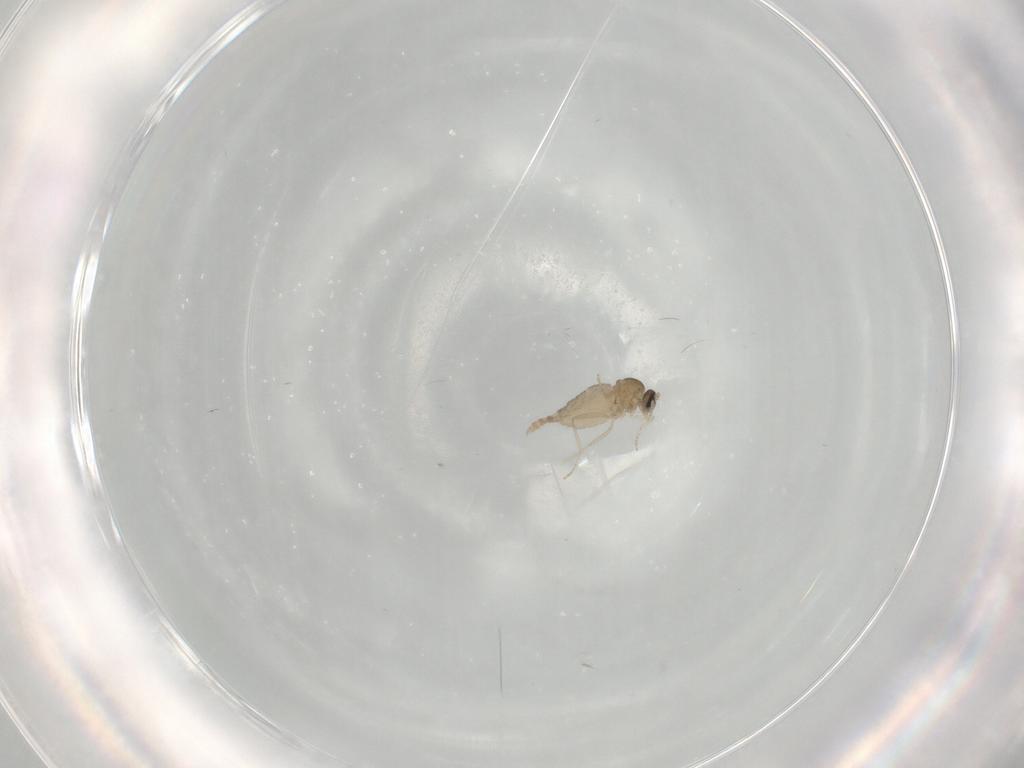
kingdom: Animalia
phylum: Arthropoda
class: Insecta
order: Diptera
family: Cecidomyiidae
